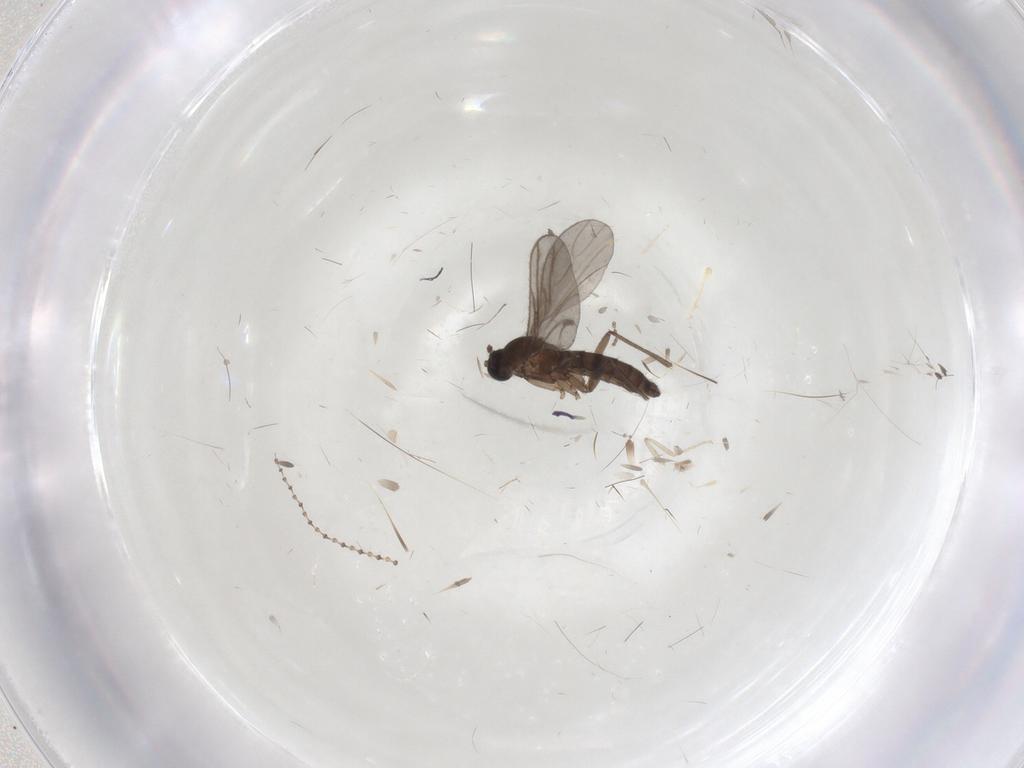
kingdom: Animalia
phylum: Arthropoda
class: Insecta
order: Diptera
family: Cecidomyiidae
